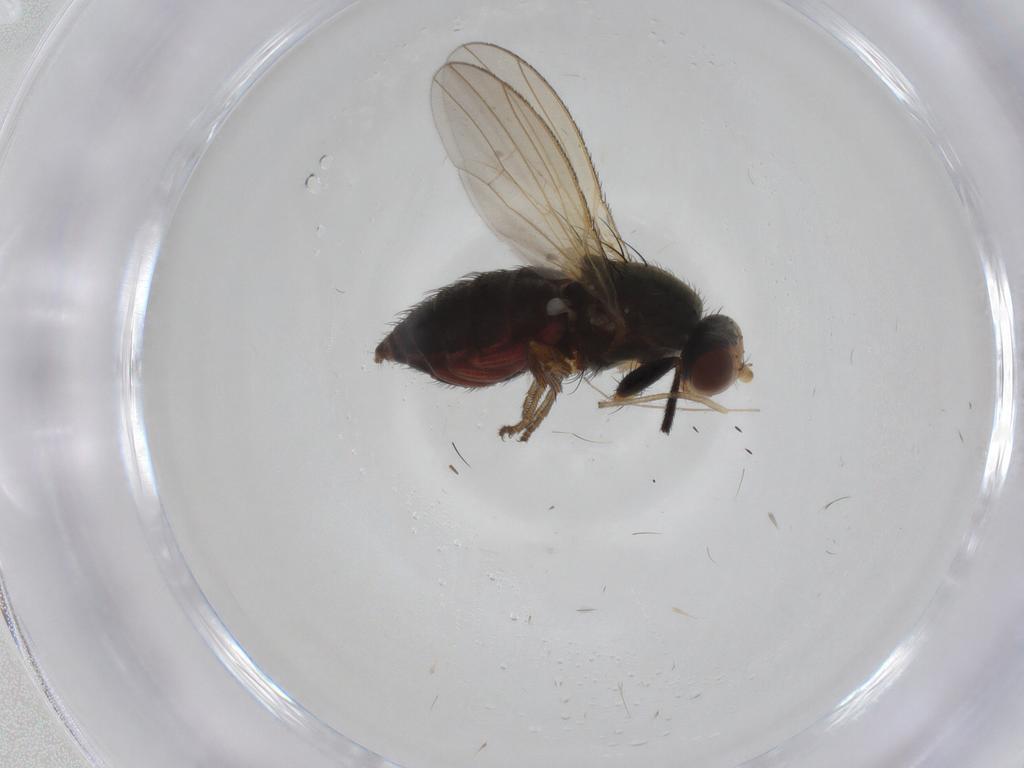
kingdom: Animalia
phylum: Arthropoda
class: Insecta
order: Diptera
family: Heleomyzidae
